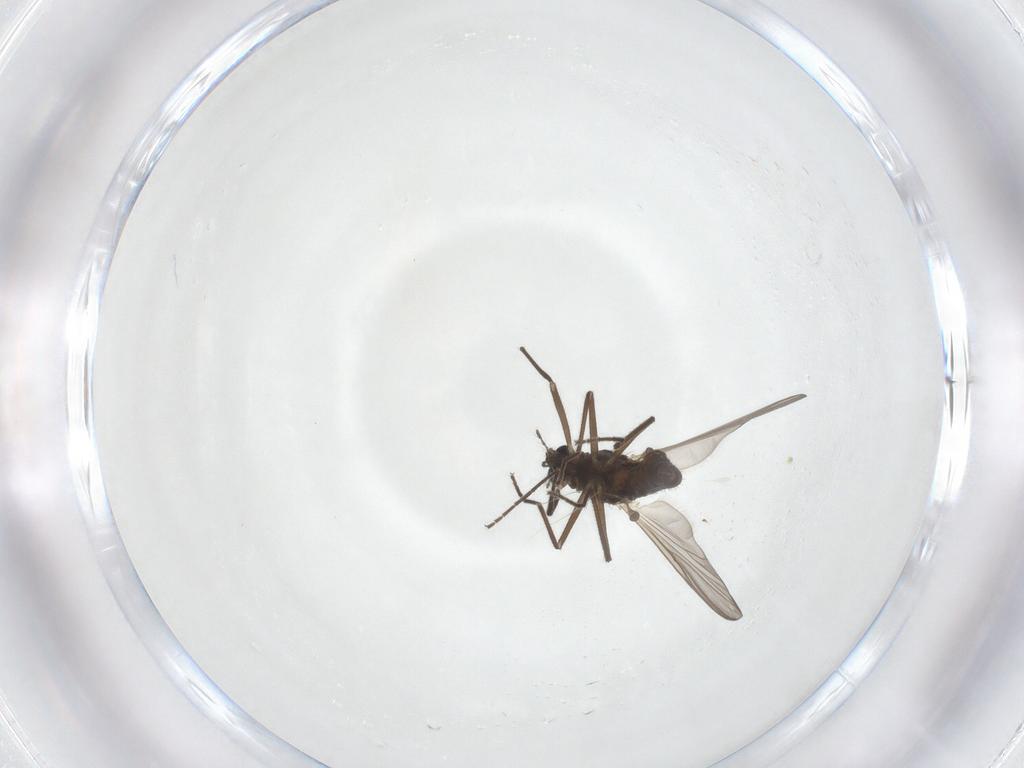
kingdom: Animalia
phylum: Arthropoda
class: Insecta
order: Diptera
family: Chironomidae
